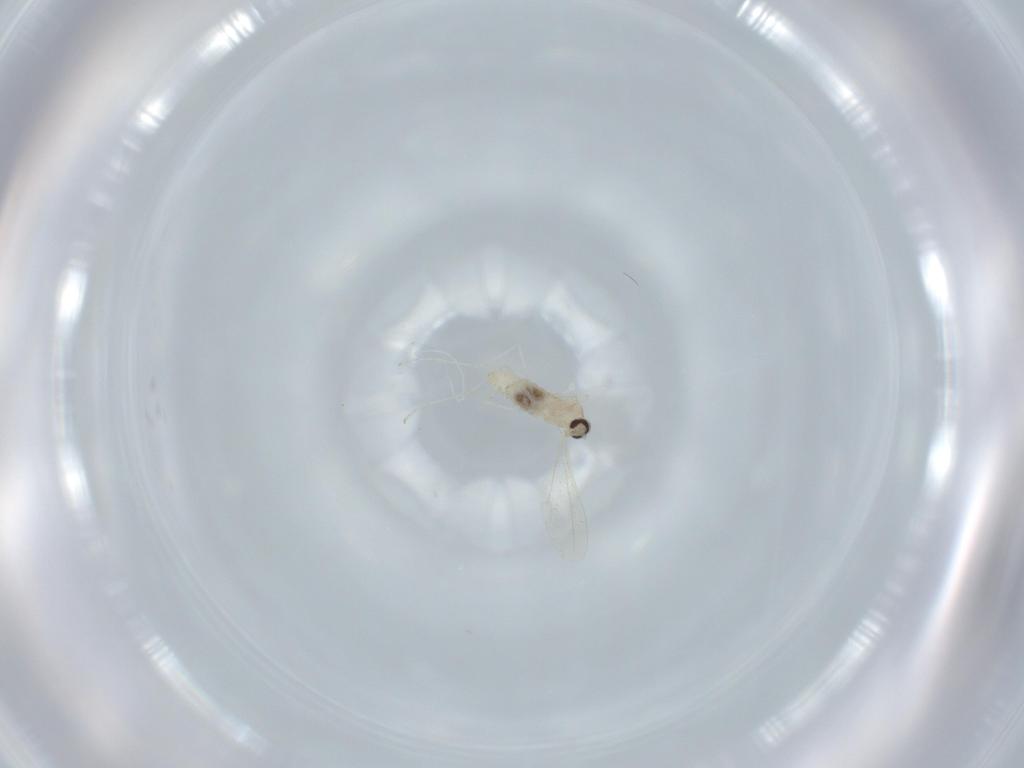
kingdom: Animalia
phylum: Arthropoda
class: Insecta
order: Diptera
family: Cecidomyiidae
